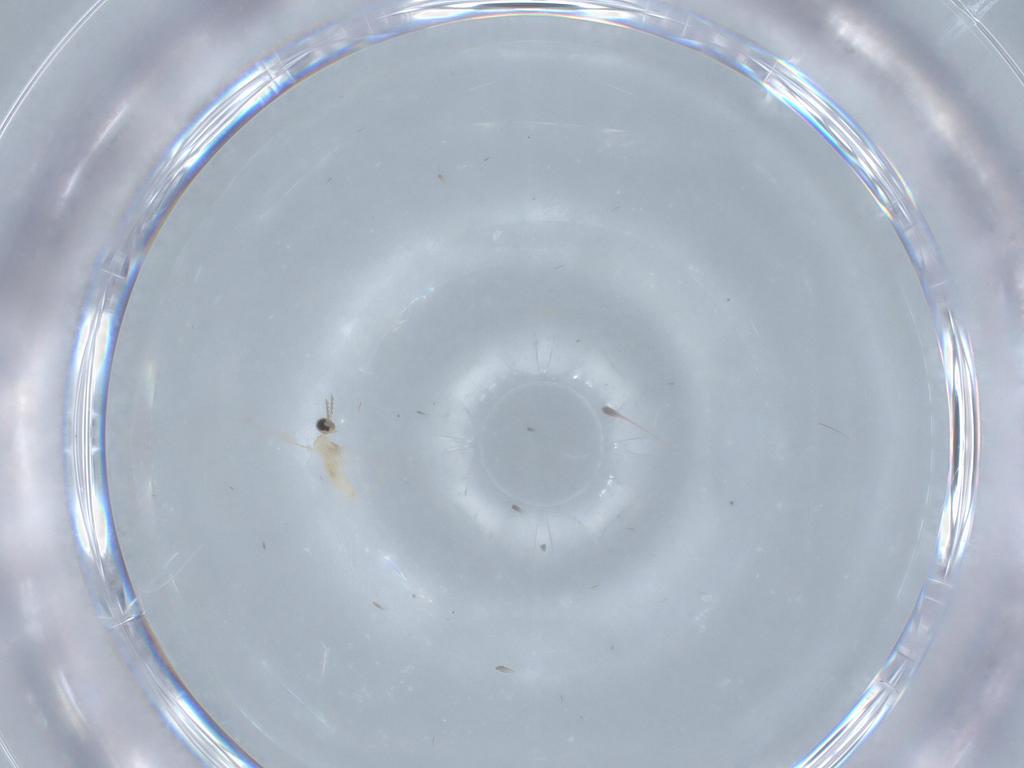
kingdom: Animalia
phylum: Arthropoda
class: Insecta
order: Diptera
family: Cecidomyiidae
